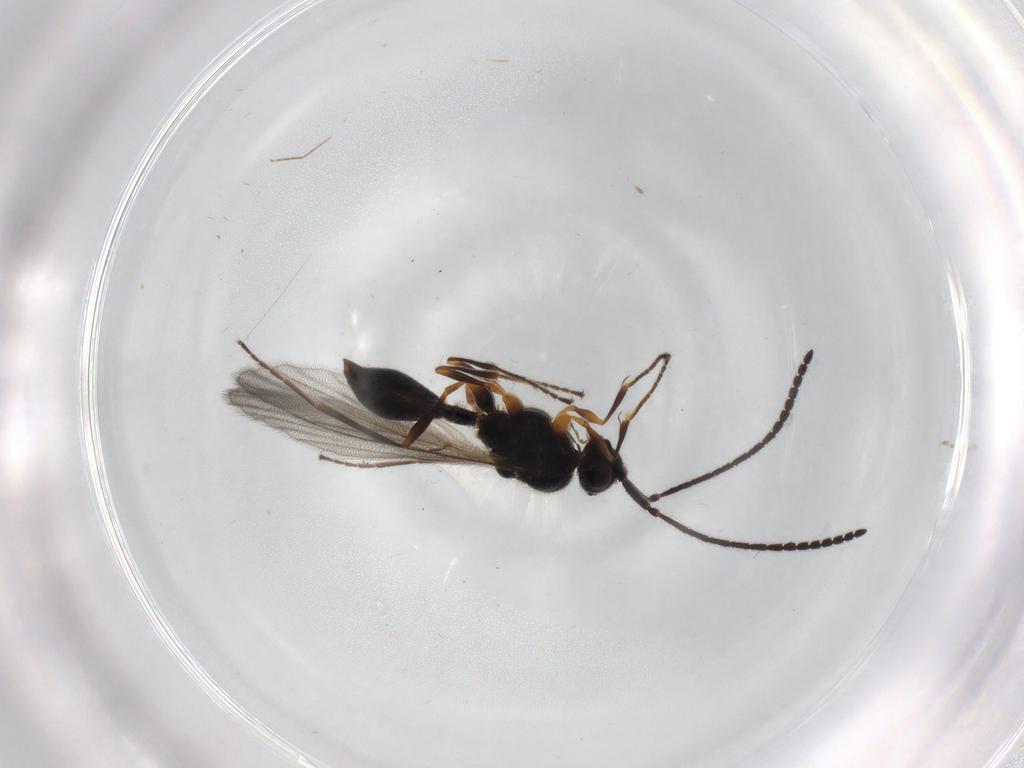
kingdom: Animalia
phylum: Arthropoda
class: Insecta
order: Hymenoptera
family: Diapriidae
